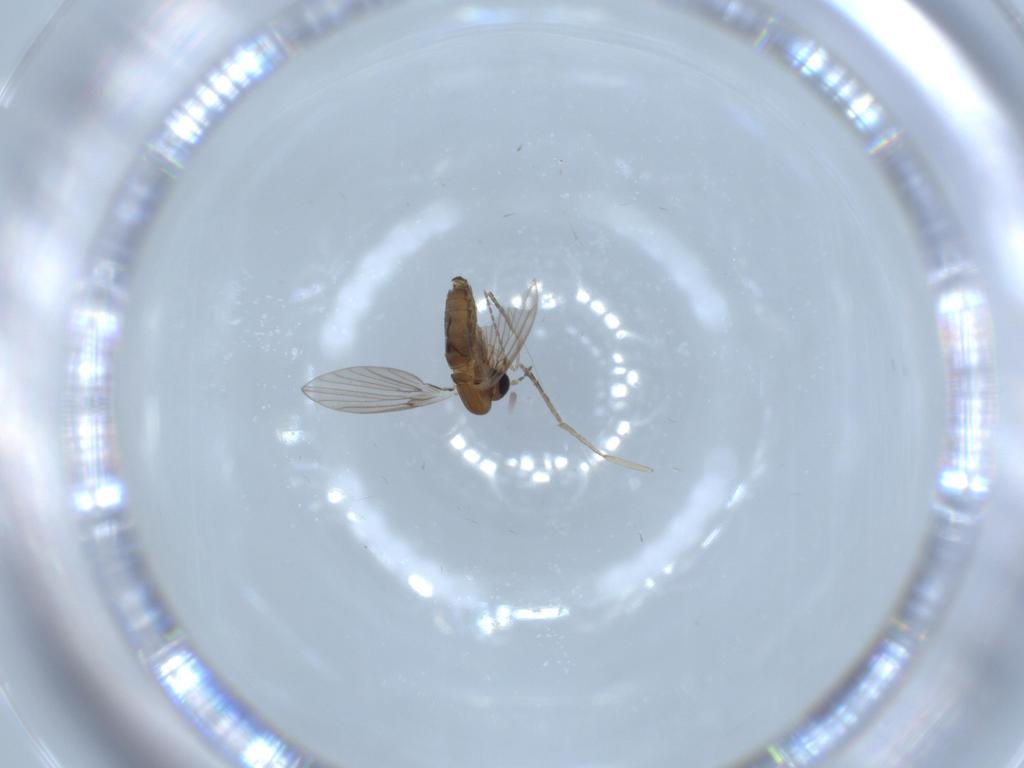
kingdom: Animalia
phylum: Arthropoda
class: Insecta
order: Diptera
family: Psychodidae
